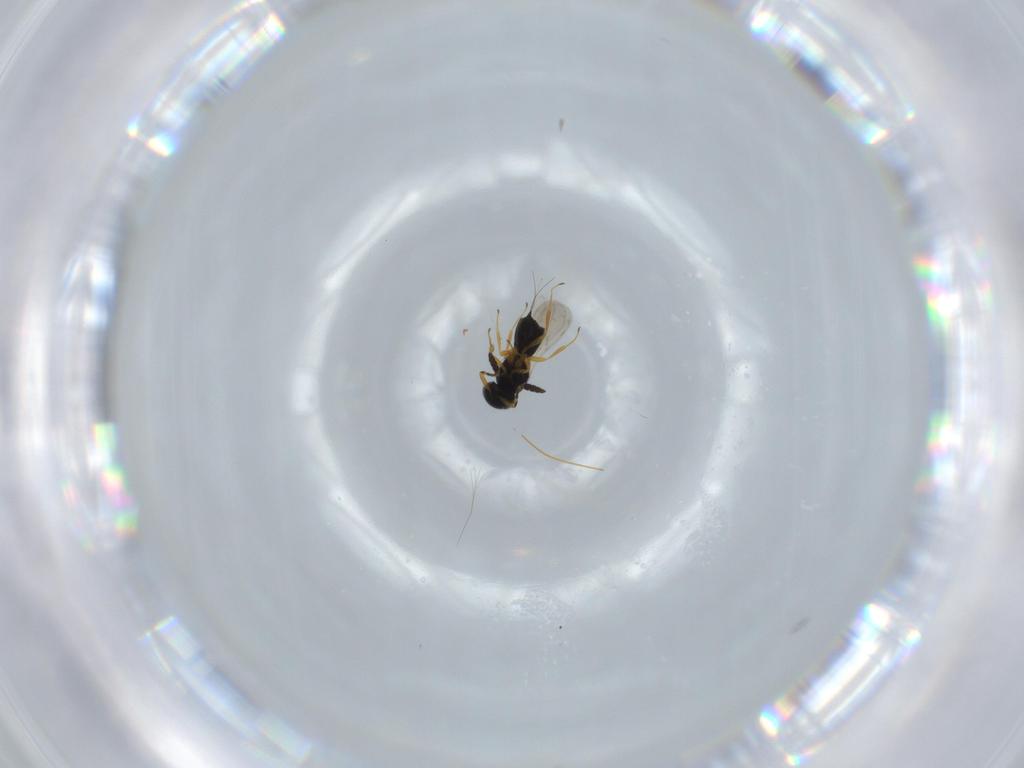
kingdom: Animalia
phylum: Arthropoda
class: Insecta
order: Hymenoptera
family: Scelionidae
